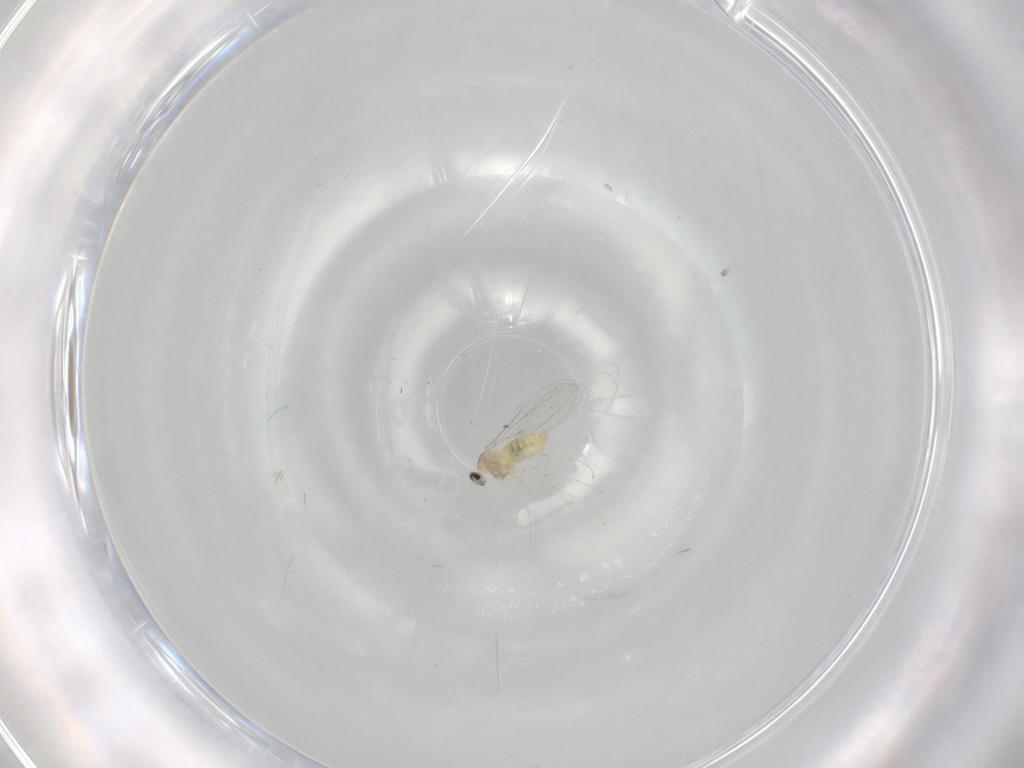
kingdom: Animalia
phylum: Arthropoda
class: Insecta
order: Diptera
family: Cecidomyiidae
